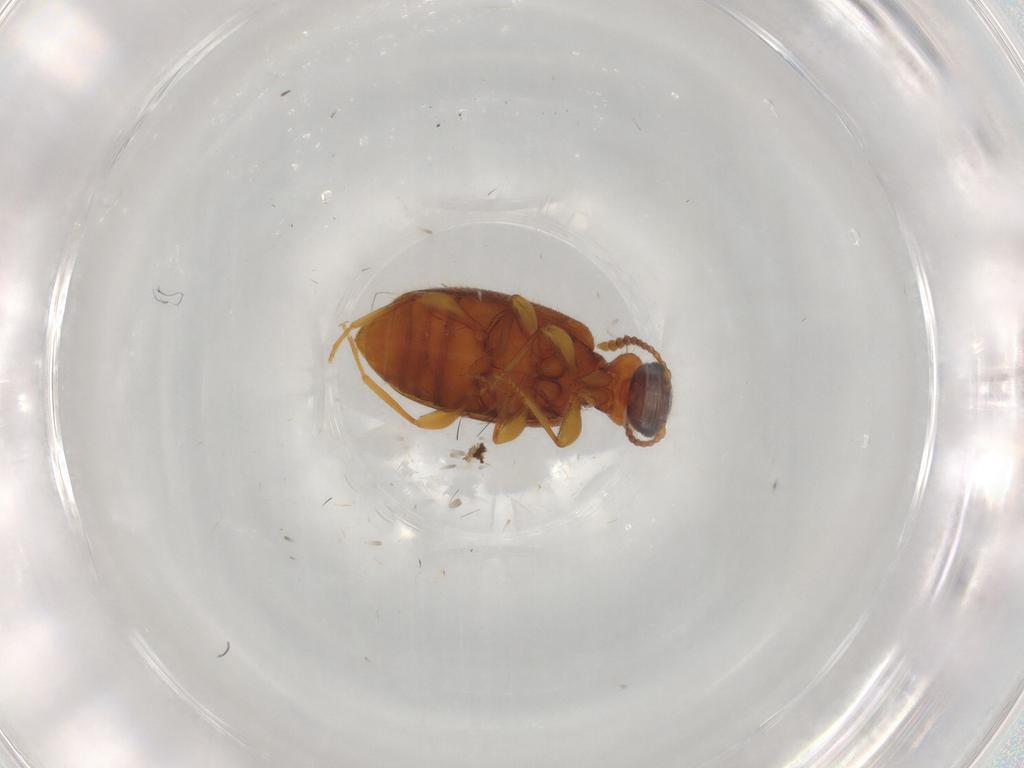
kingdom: Animalia
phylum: Arthropoda
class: Insecta
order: Coleoptera
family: Anthicidae
